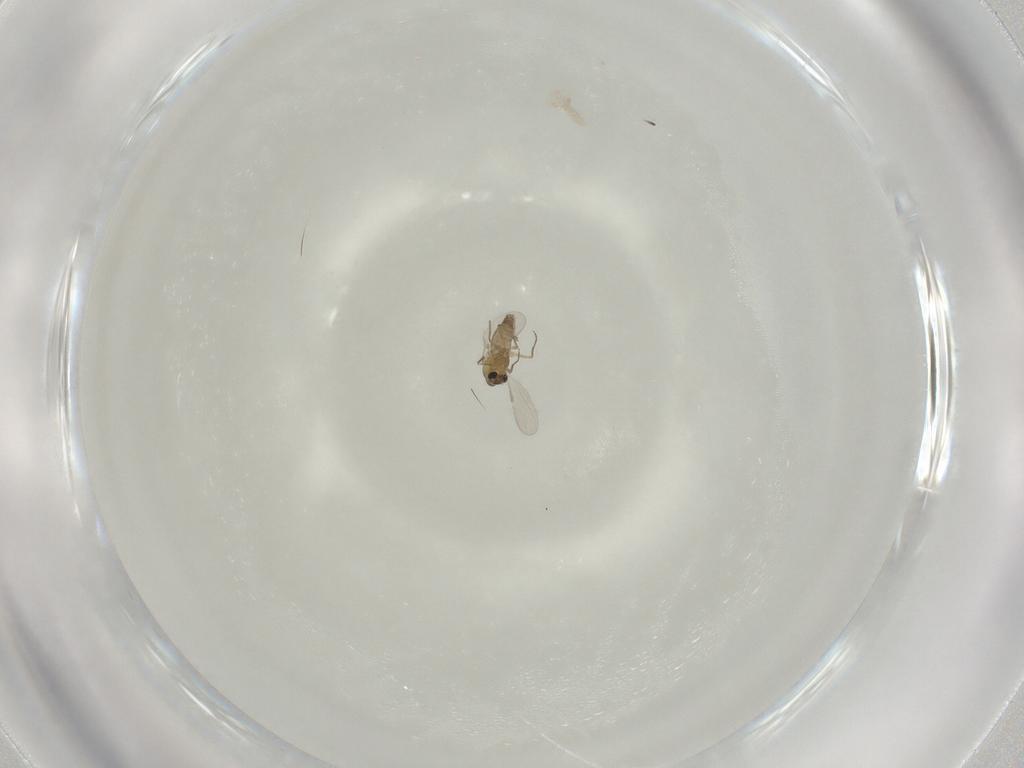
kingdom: Animalia
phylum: Arthropoda
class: Insecta
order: Diptera
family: Chironomidae
